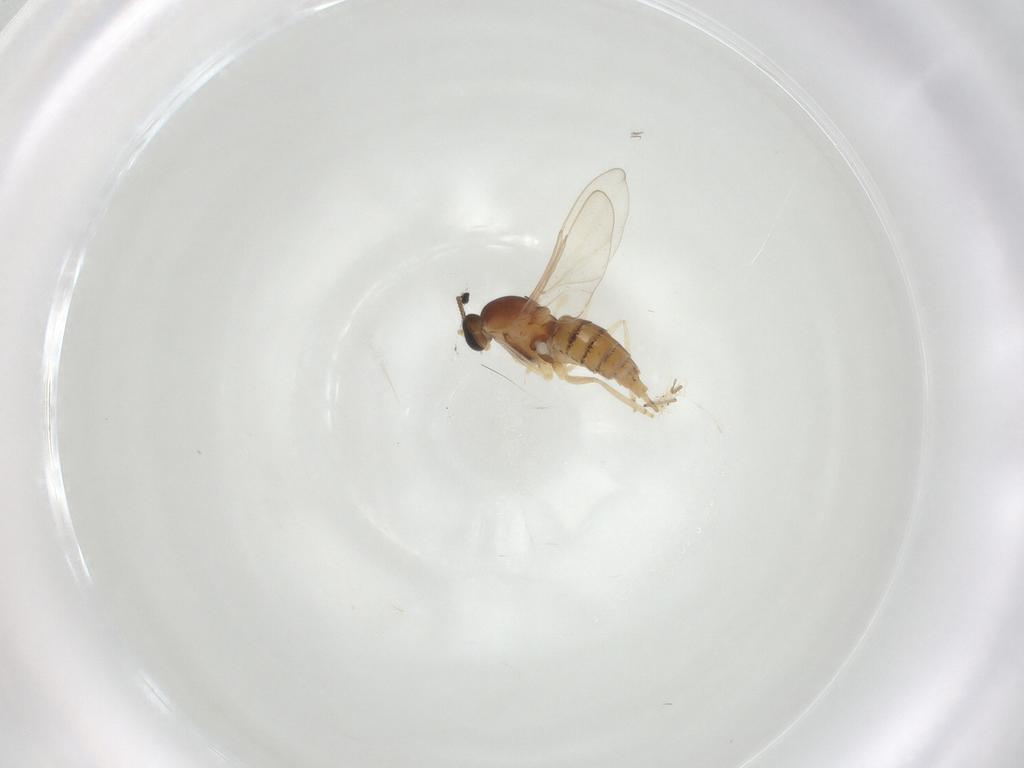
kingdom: Animalia
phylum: Arthropoda
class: Insecta
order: Diptera
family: Cecidomyiidae
